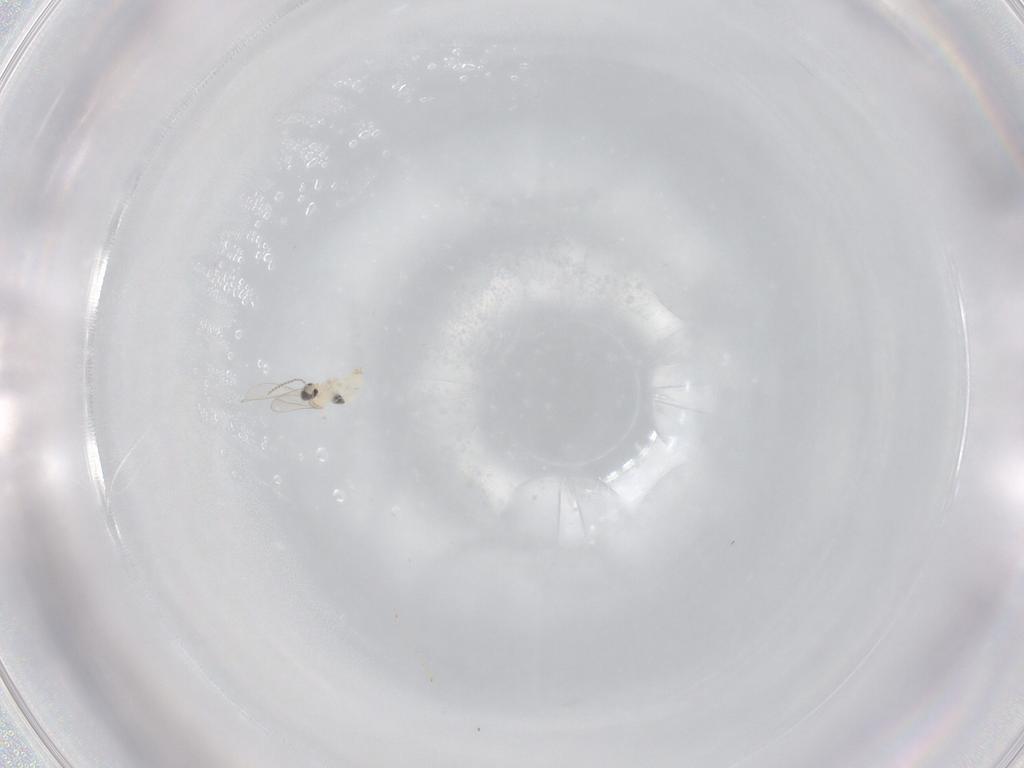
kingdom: Animalia
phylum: Arthropoda
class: Insecta
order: Diptera
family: Cecidomyiidae
